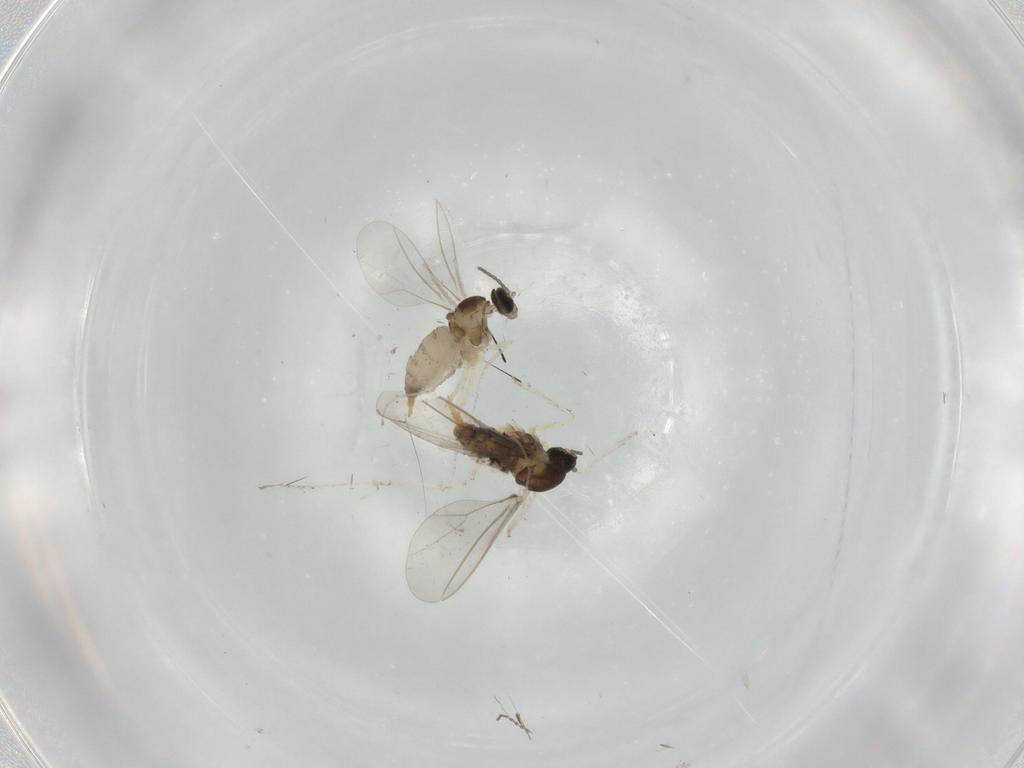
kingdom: Animalia
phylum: Arthropoda
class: Insecta
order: Diptera
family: Cecidomyiidae
